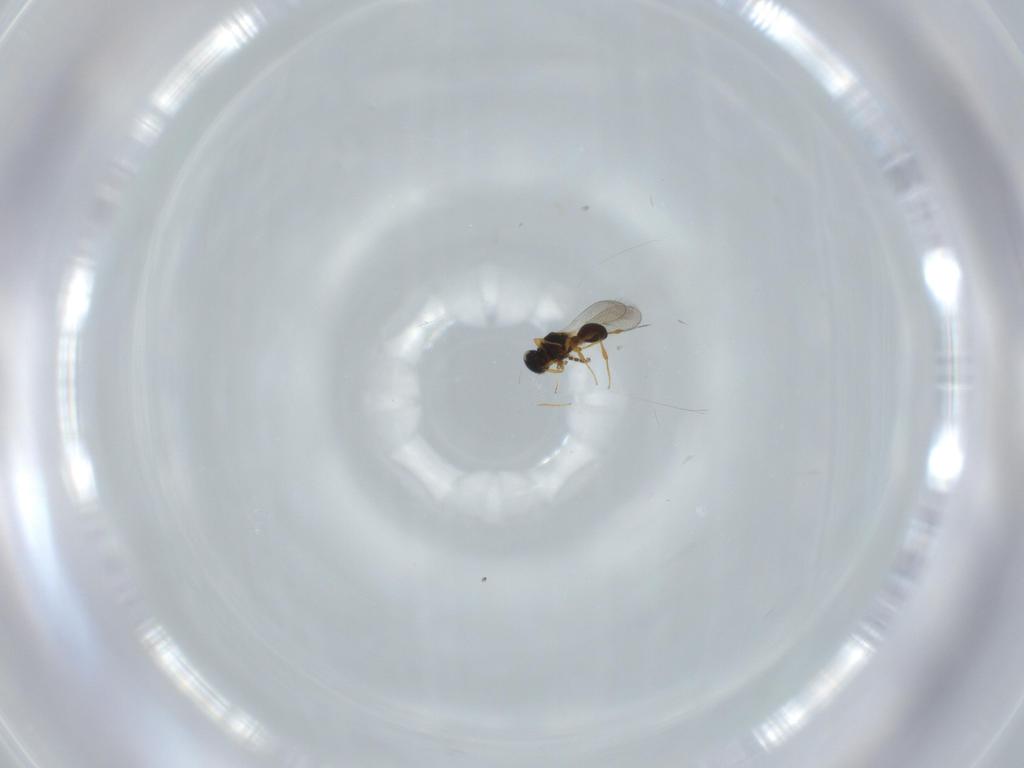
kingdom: Animalia
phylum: Arthropoda
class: Insecta
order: Hymenoptera
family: Platygastridae
